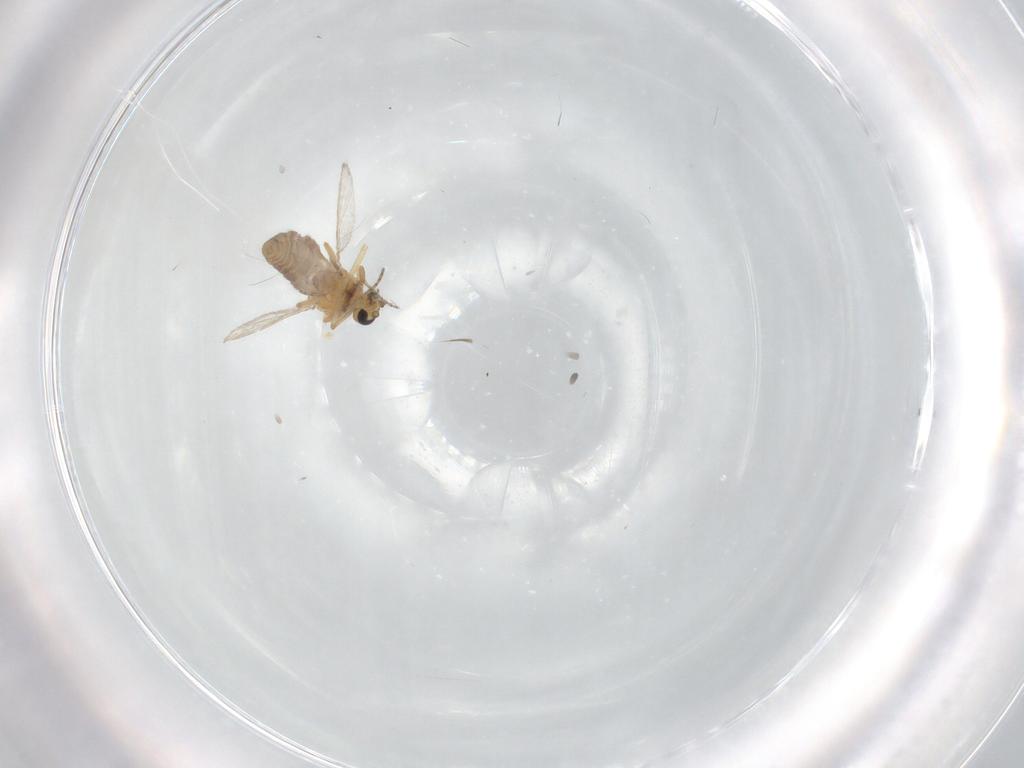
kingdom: Animalia
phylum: Arthropoda
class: Insecta
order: Diptera
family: Ceratopogonidae
